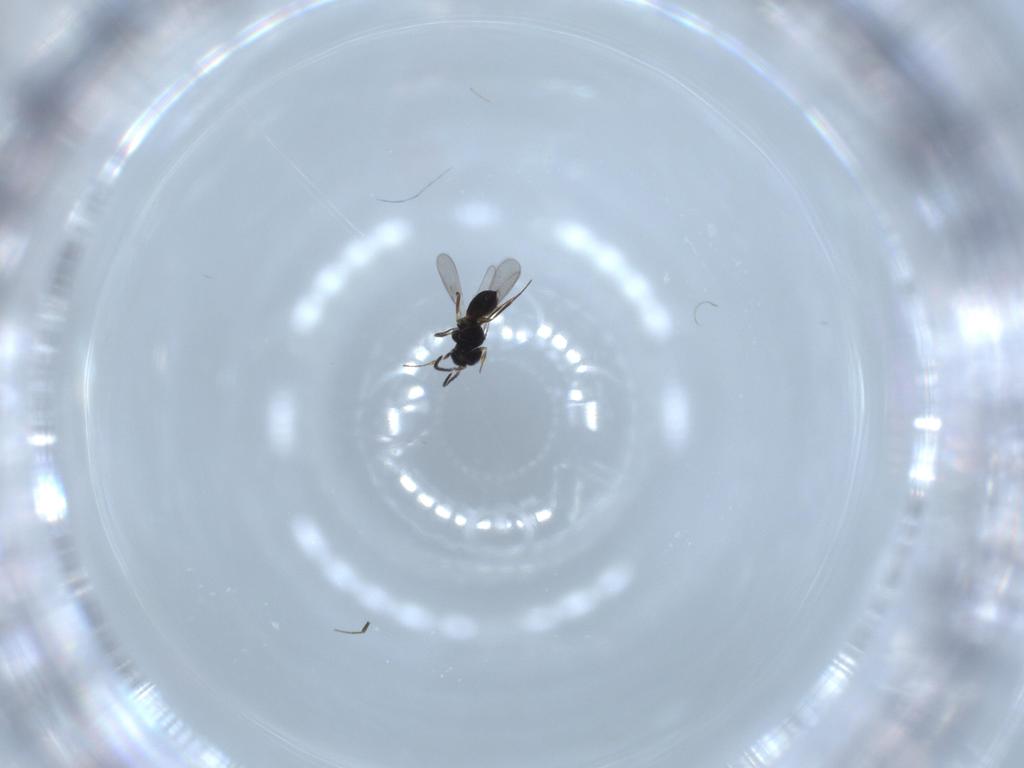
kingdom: Animalia
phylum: Arthropoda
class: Insecta
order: Hymenoptera
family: Scelionidae
